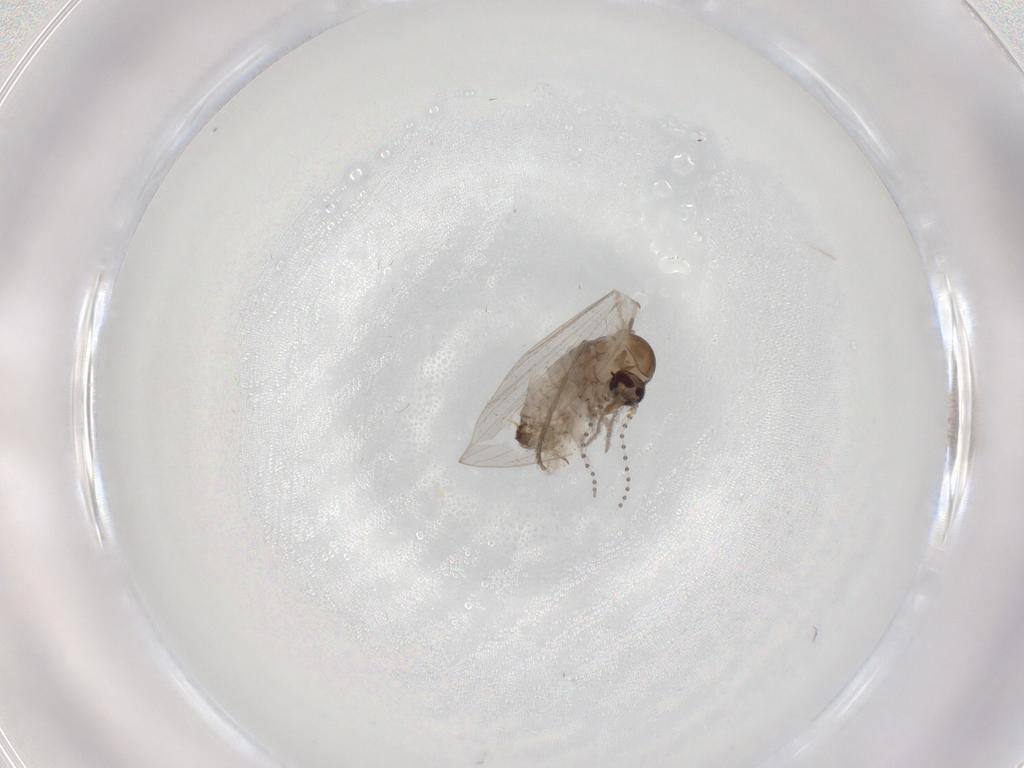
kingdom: Animalia
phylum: Arthropoda
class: Insecta
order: Diptera
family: Psychodidae
